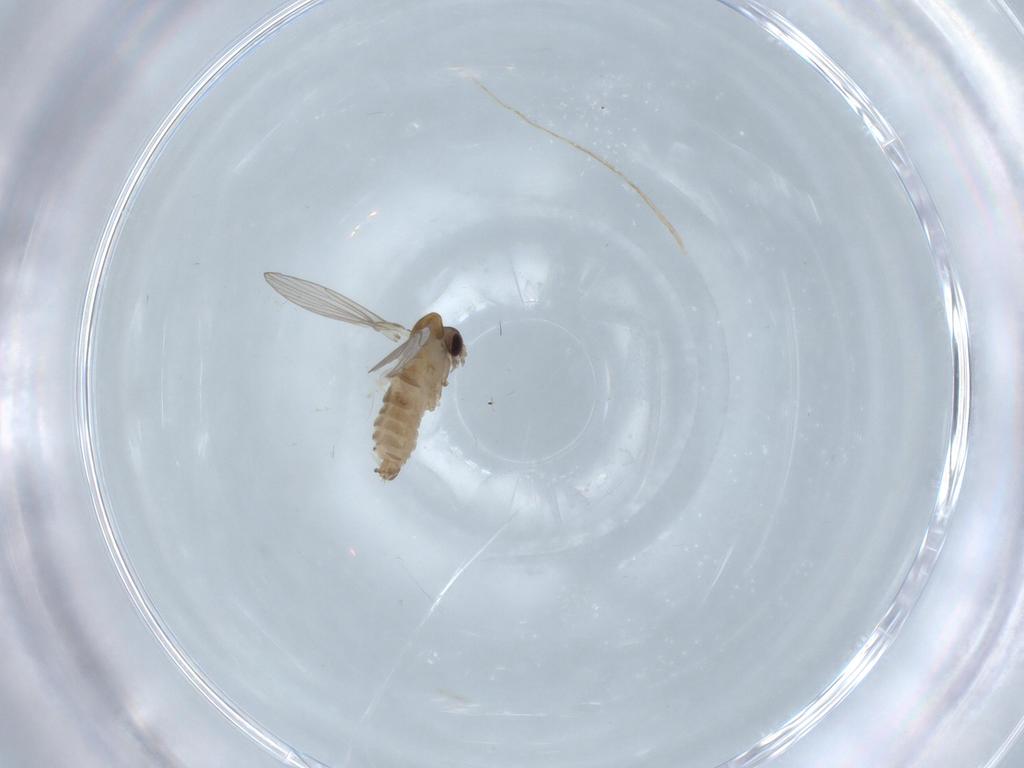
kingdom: Animalia
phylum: Arthropoda
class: Insecta
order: Diptera
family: Psychodidae
